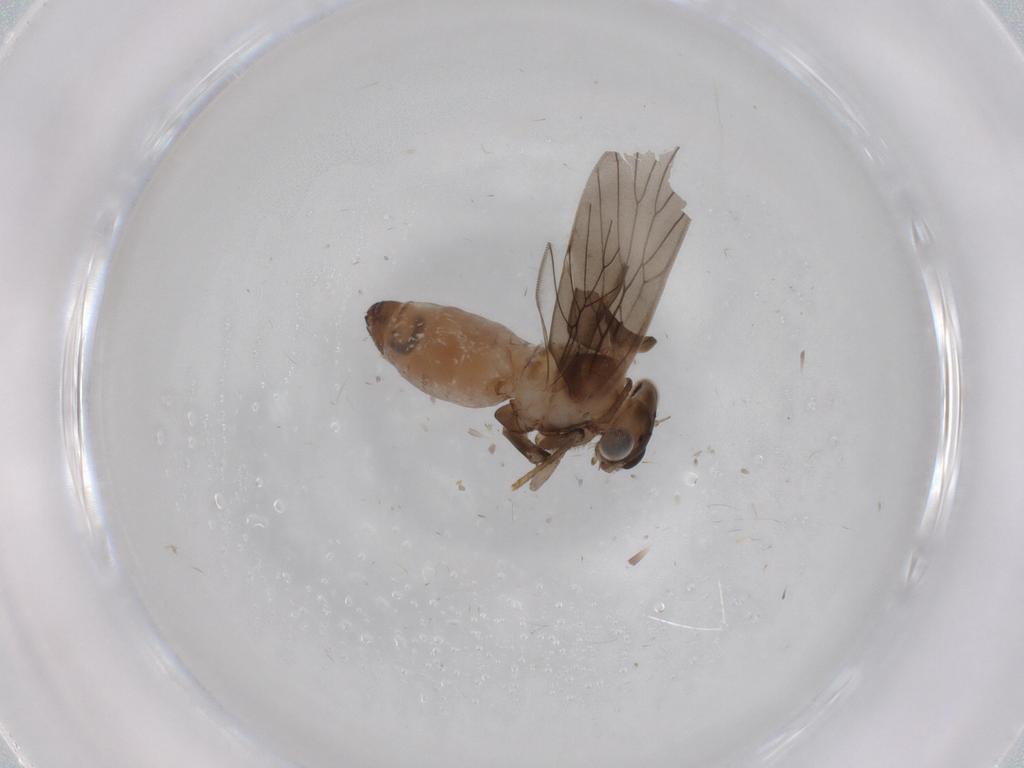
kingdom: Animalia
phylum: Arthropoda
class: Insecta
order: Psocodea
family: Lepidopsocidae
